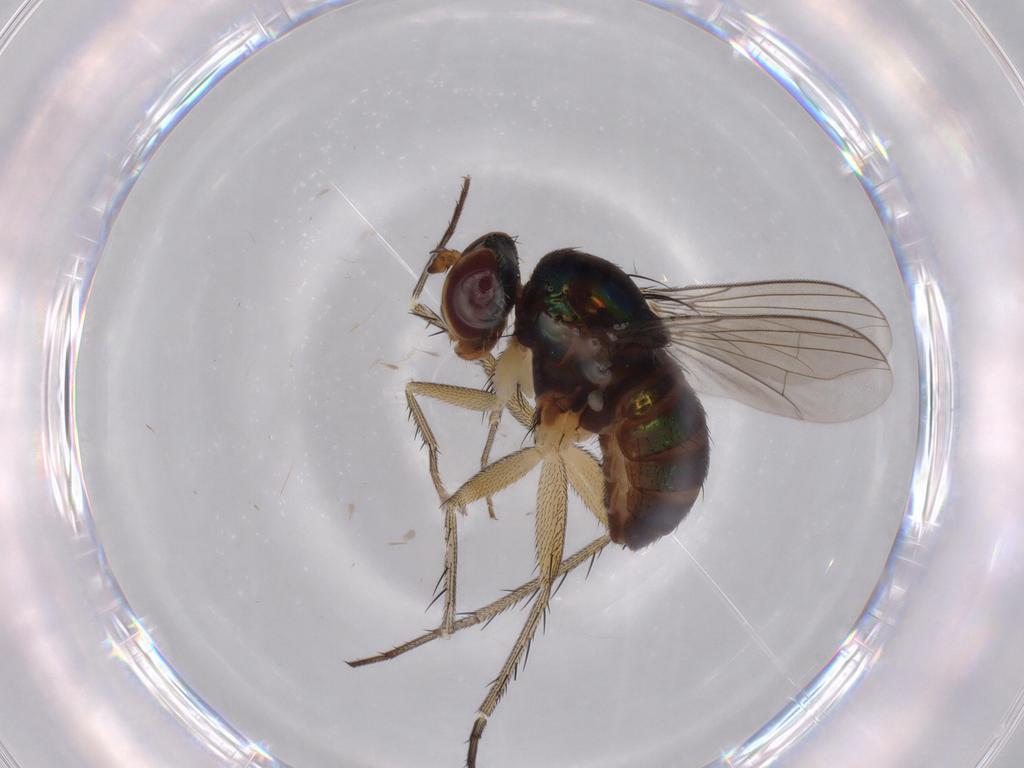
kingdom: Animalia
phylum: Arthropoda
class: Insecta
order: Diptera
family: Dolichopodidae
